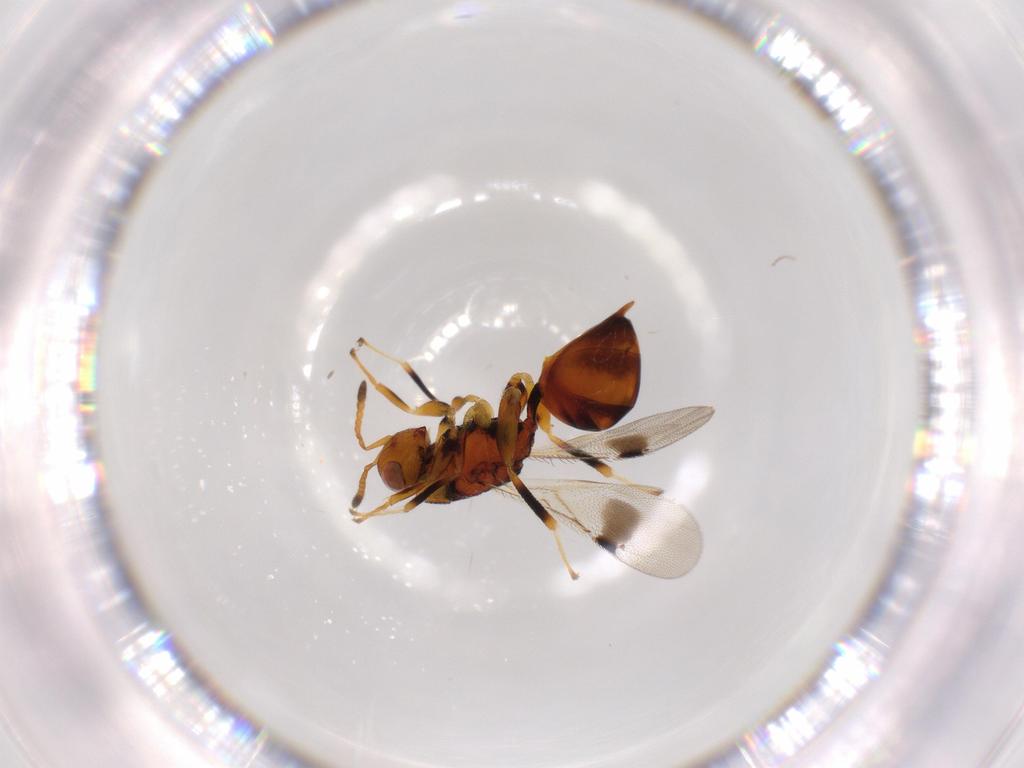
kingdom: Animalia
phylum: Arthropoda
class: Insecta
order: Hymenoptera
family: Eurytomidae
